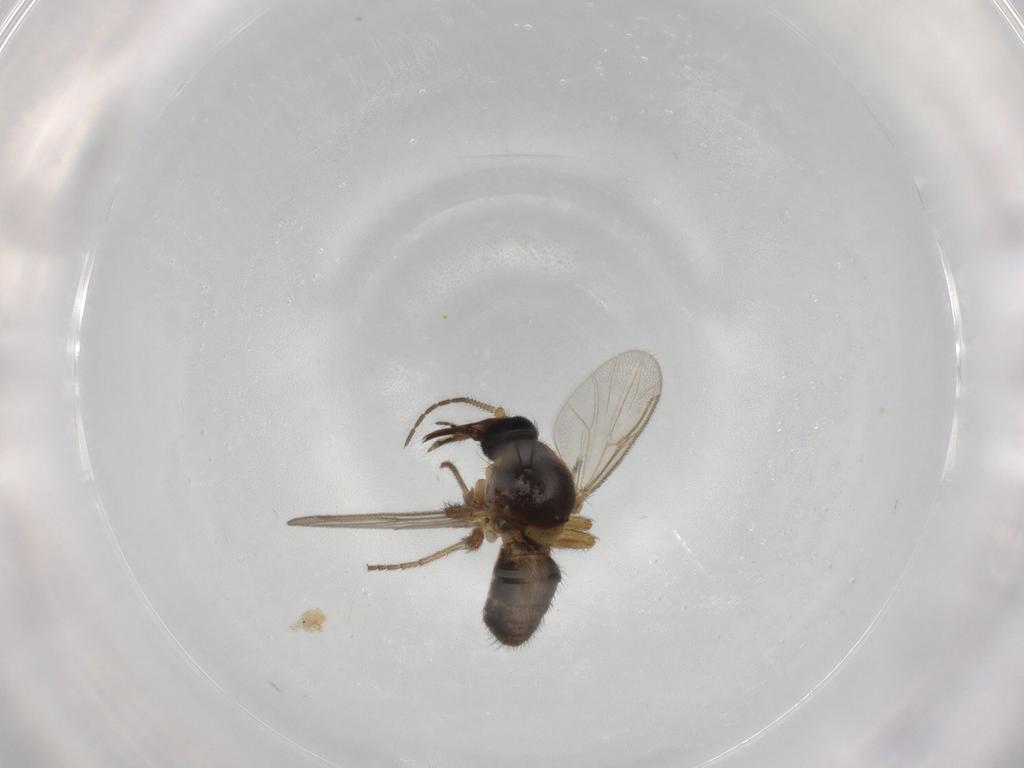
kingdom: Animalia
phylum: Arthropoda
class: Insecta
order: Diptera
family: Ceratopogonidae
